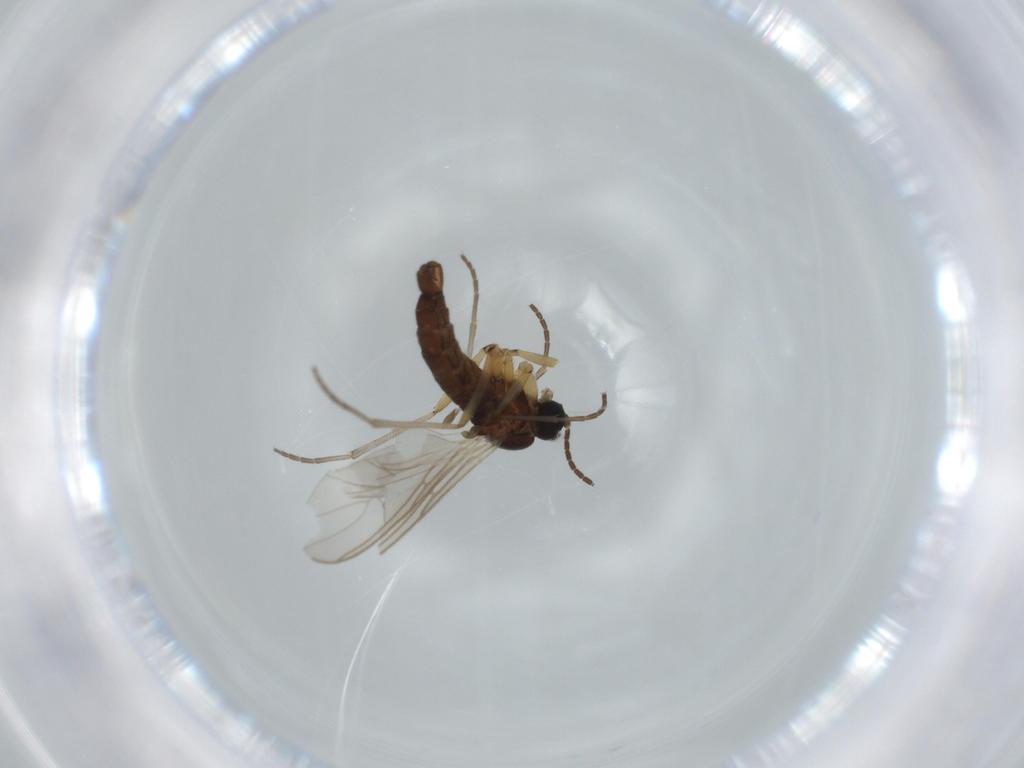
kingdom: Animalia
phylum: Arthropoda
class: Insecta
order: Diptera
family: Sciaridae
